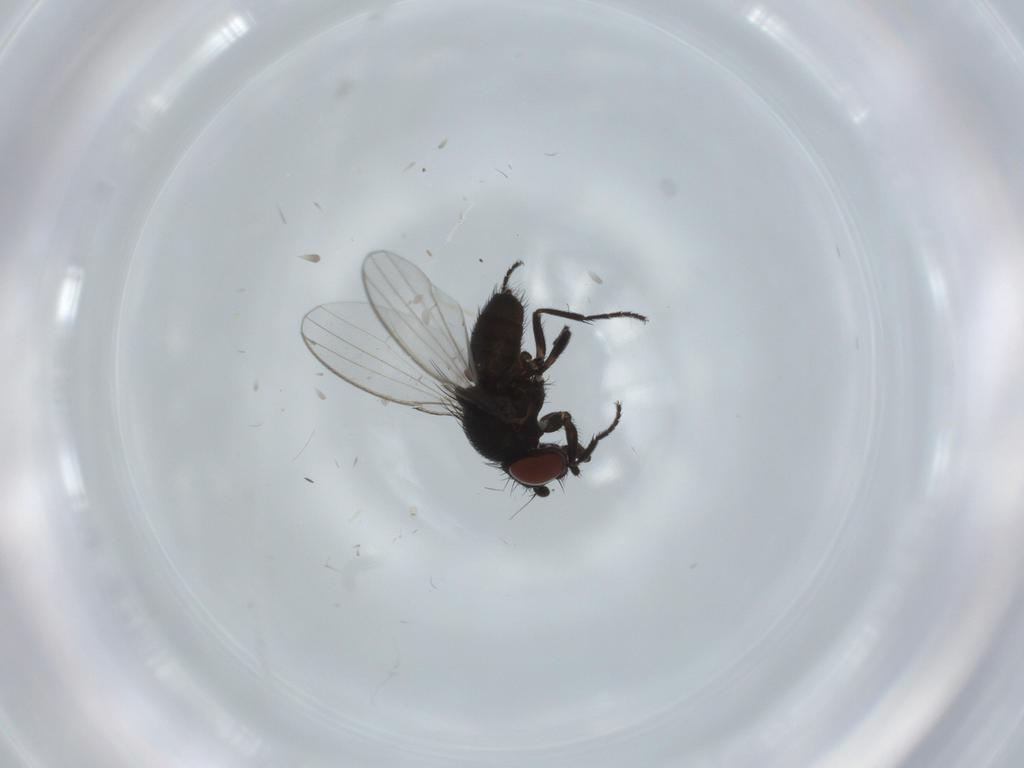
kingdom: Animalia
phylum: Arthropoda
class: Insecta
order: Diptera
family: Milichiidae
